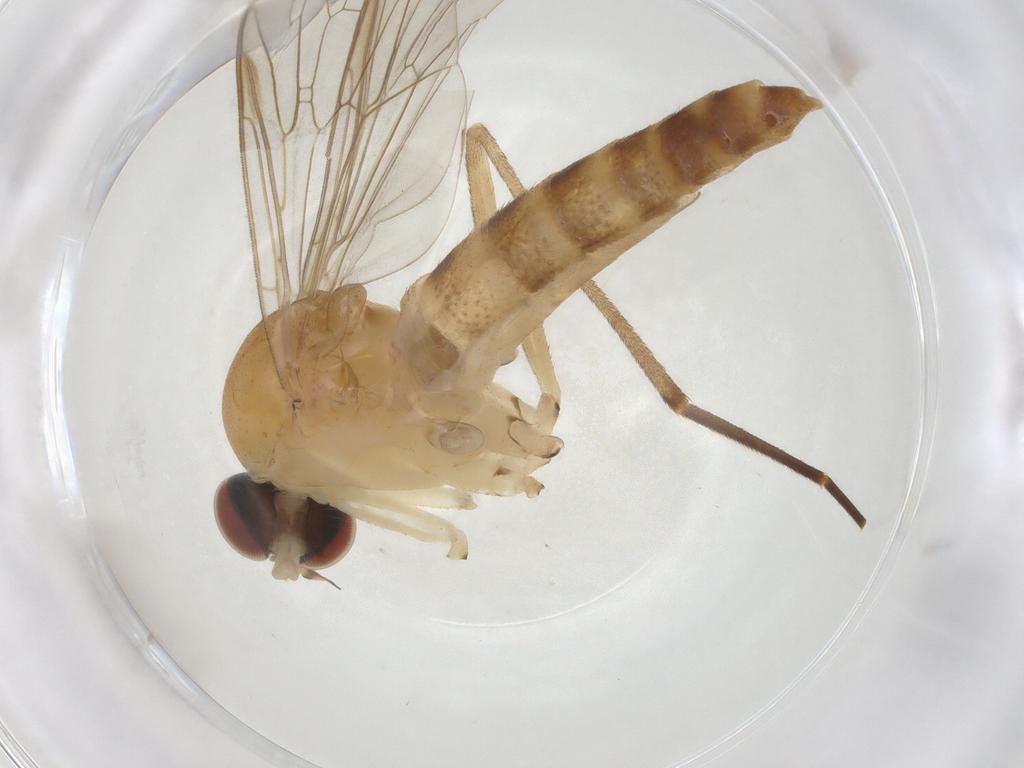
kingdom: Animalia
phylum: Arthropoda
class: Insecta
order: Diptera
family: Apsilocephalidae
